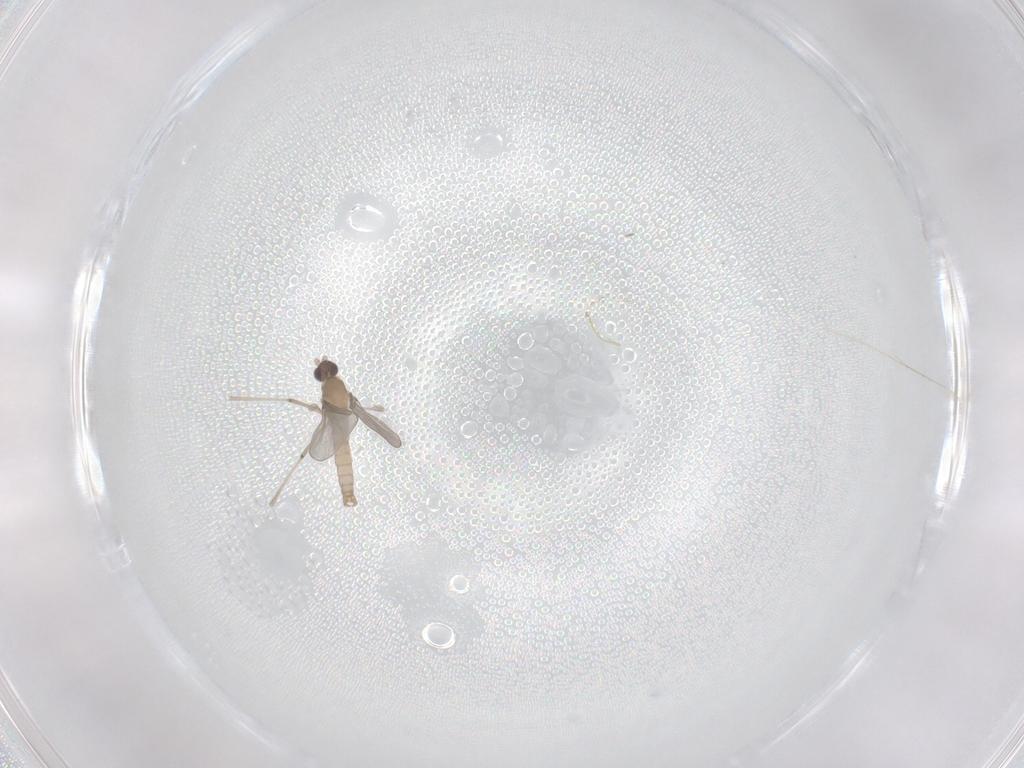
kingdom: Animalia
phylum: Arthropoda
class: Insecta
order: Diptera
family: Cecidomyiidae
